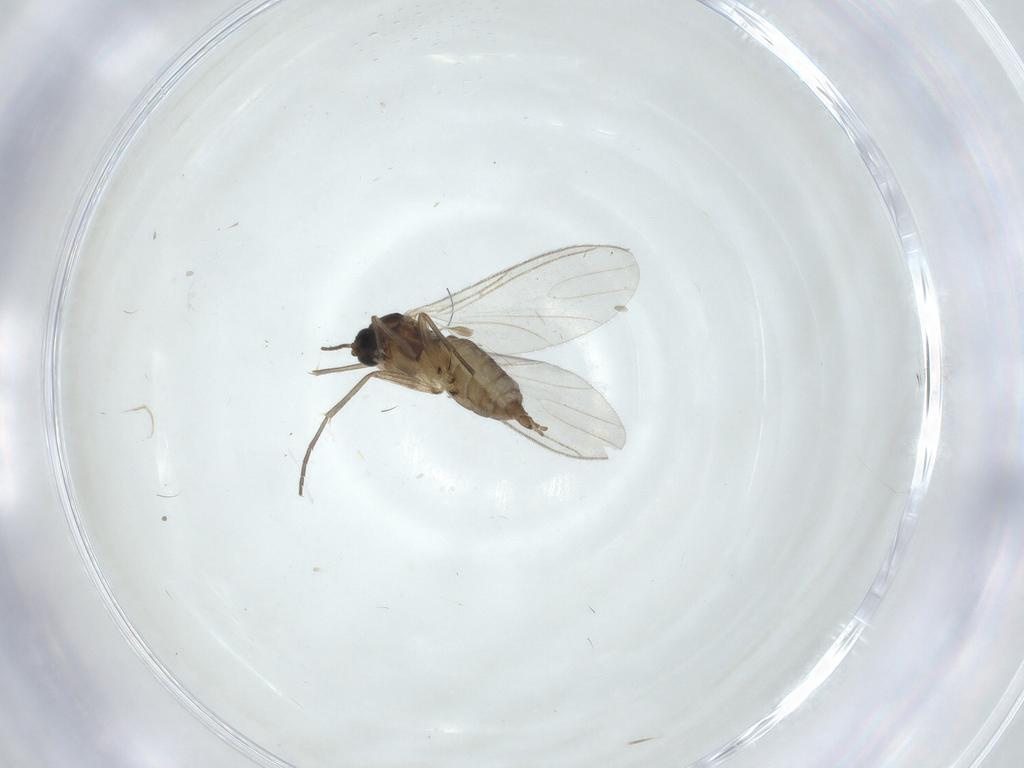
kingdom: Animalia
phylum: Arthropoda
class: Insecta
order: Diptera
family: Sciaridae
